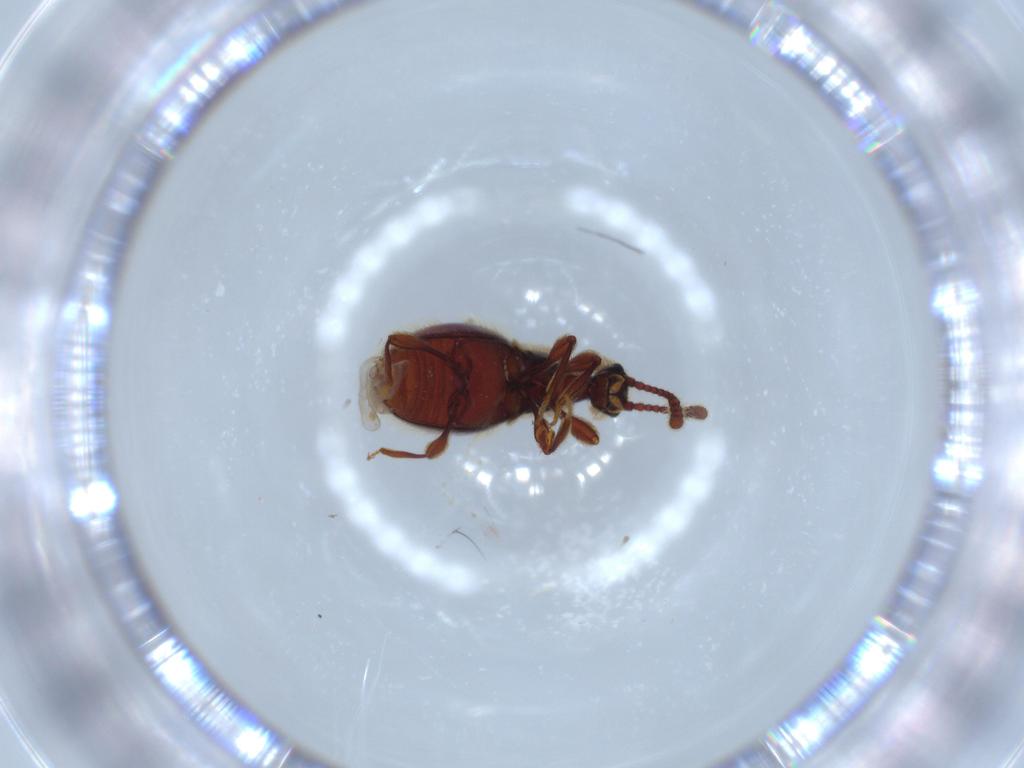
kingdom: Animalia
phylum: Arthropoda
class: Insecta
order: Coleoptera
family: Staphylinidae
